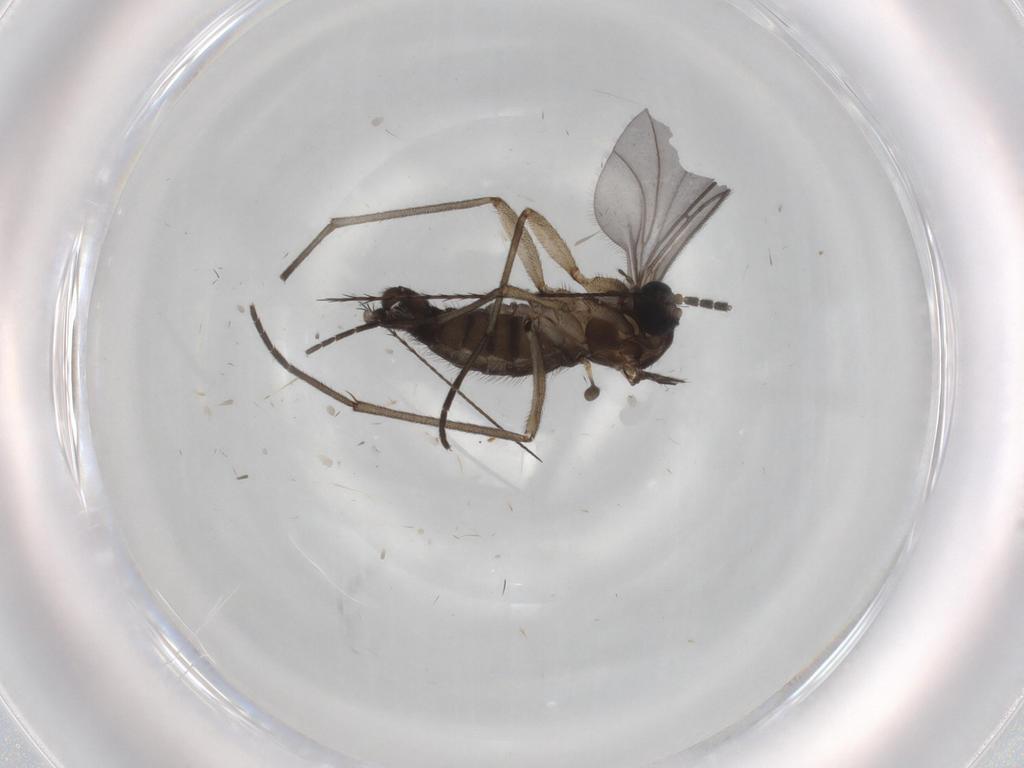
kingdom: Animalia
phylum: Arthropoda
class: Insecta
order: Diptera
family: Sciaridae
